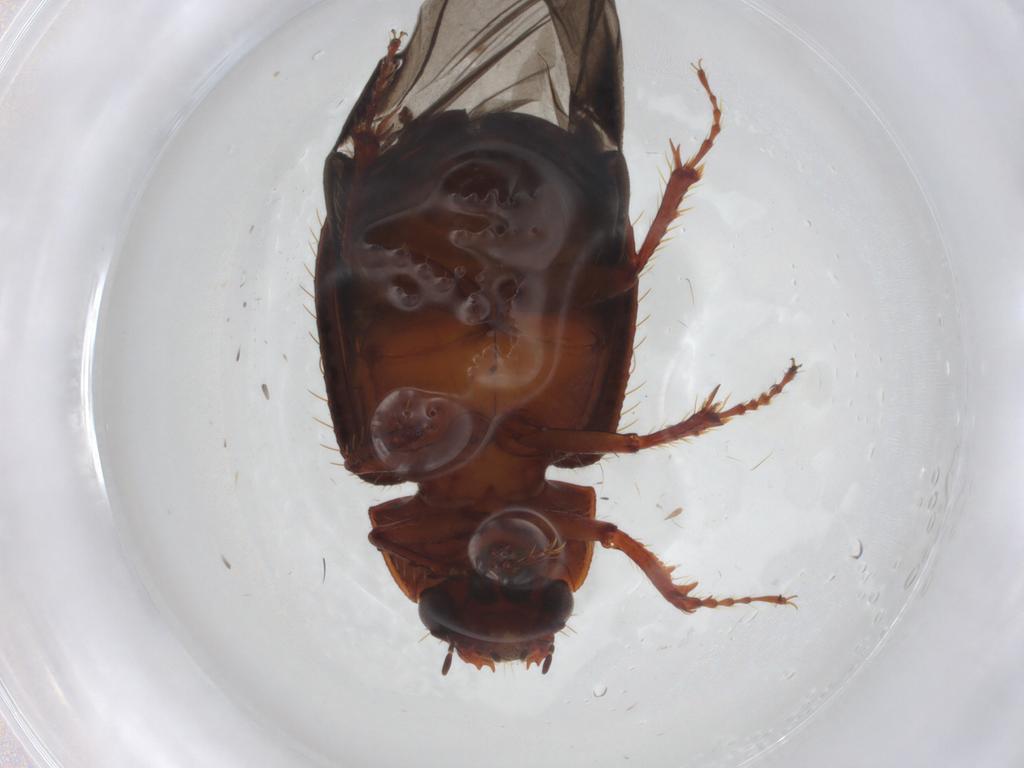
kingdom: Animalia
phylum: Arthropoda
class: Insecta
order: Coleoptera
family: Hybosoridae
